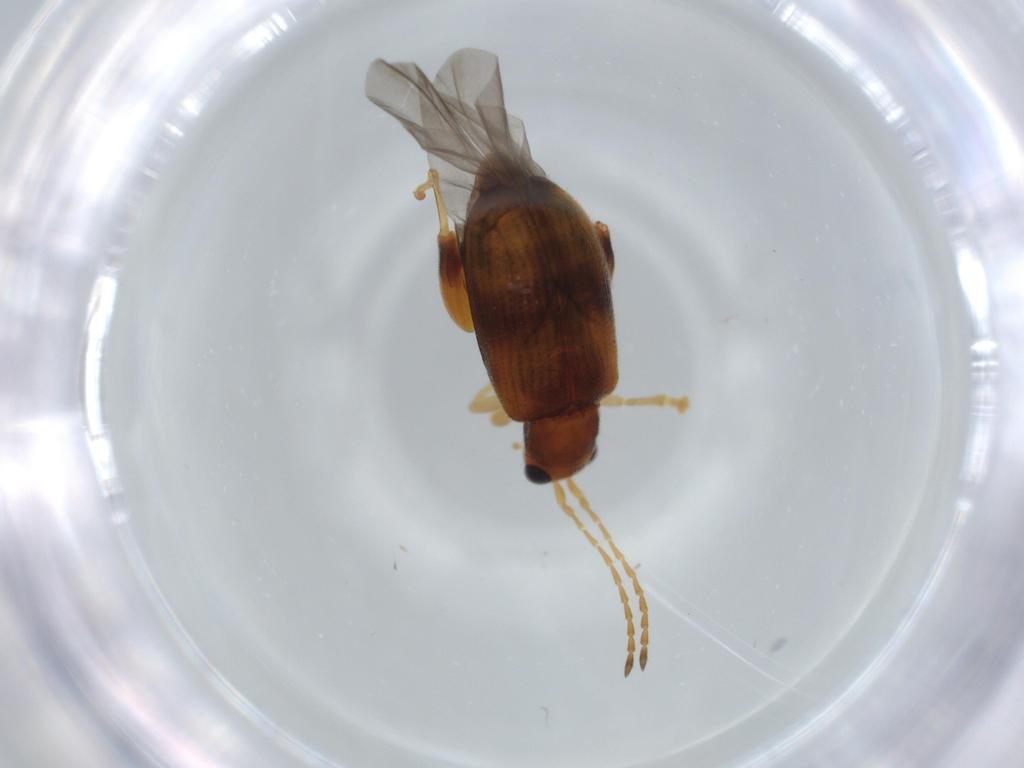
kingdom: Animalia
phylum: Arthropoda
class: Insecta
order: Coleoptera
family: Chrysomelidae
